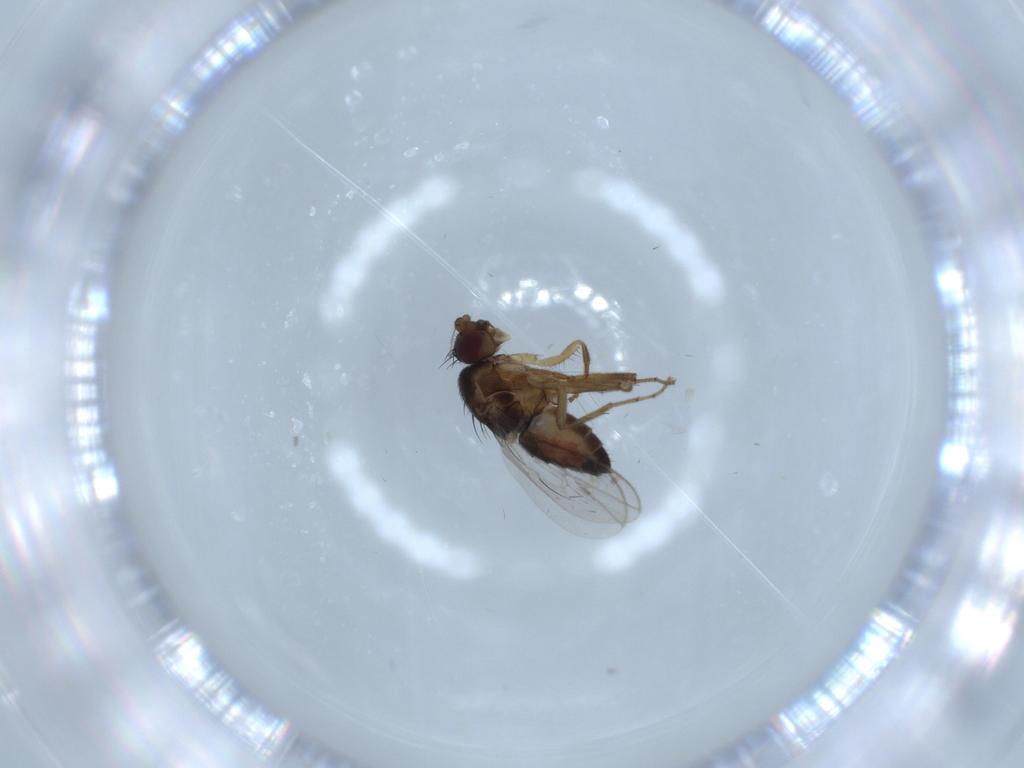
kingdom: Animalia
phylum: Arthropoda
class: Insecta
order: Diptera
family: Sphaeroceridae
